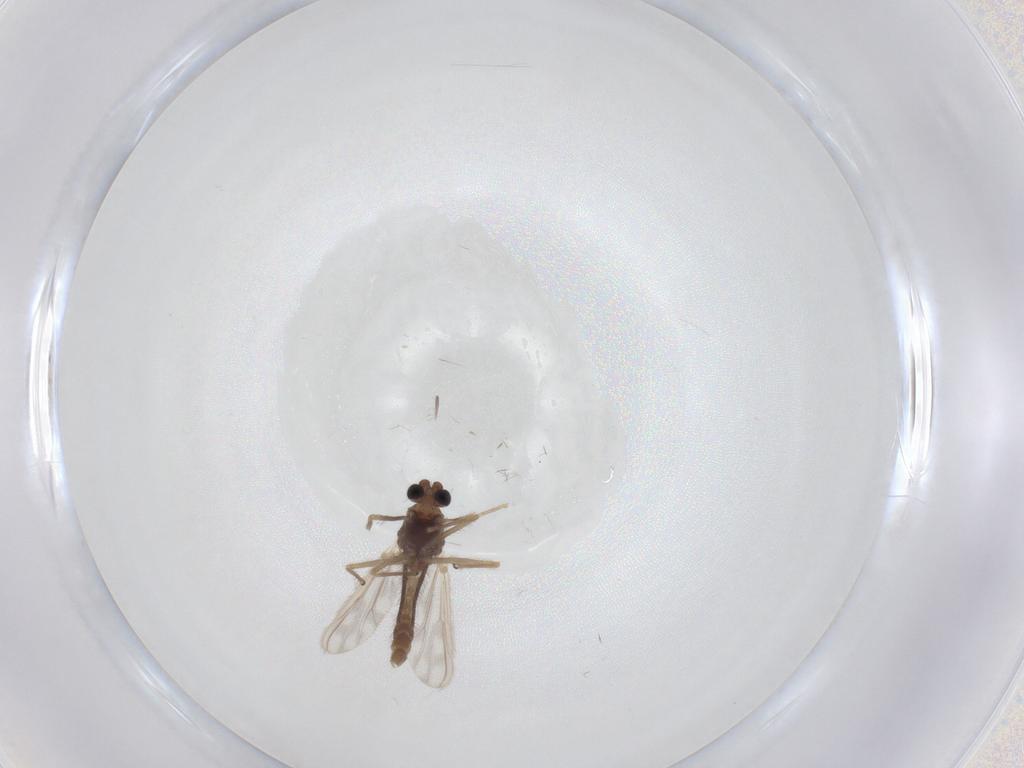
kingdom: Animalia
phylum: Arthropoda
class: Insecta
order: Diptera
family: Chironomidae
